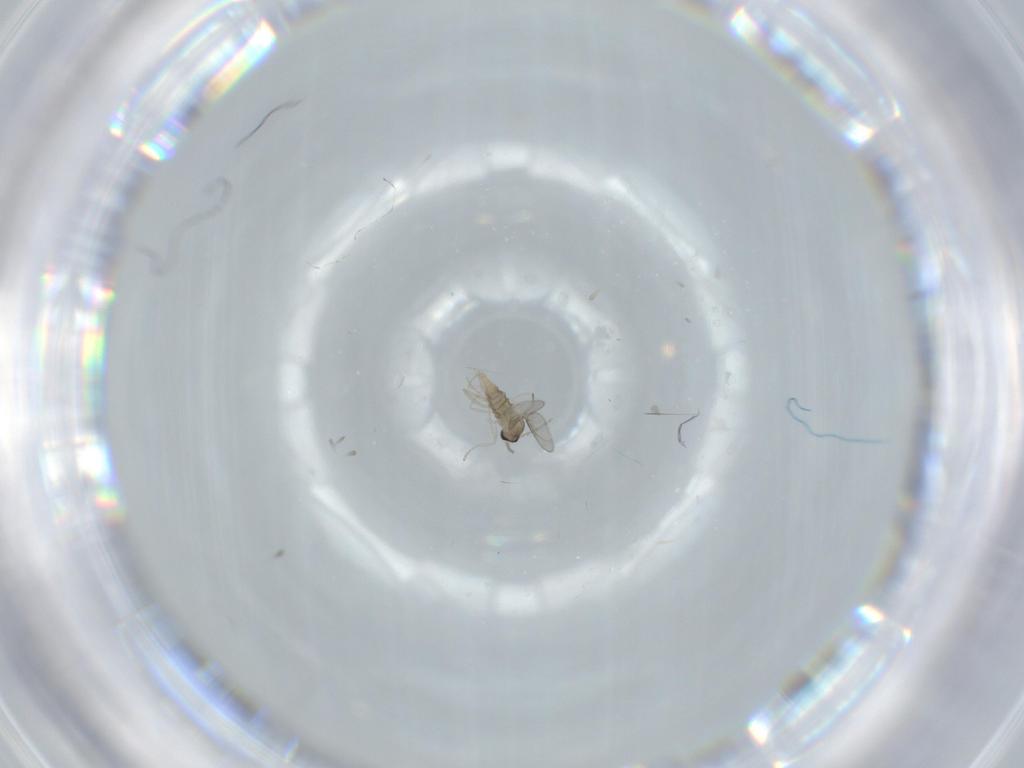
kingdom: Animalia
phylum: Arthropoda
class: Insecta
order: Diptera
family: Cecidomyiidae
